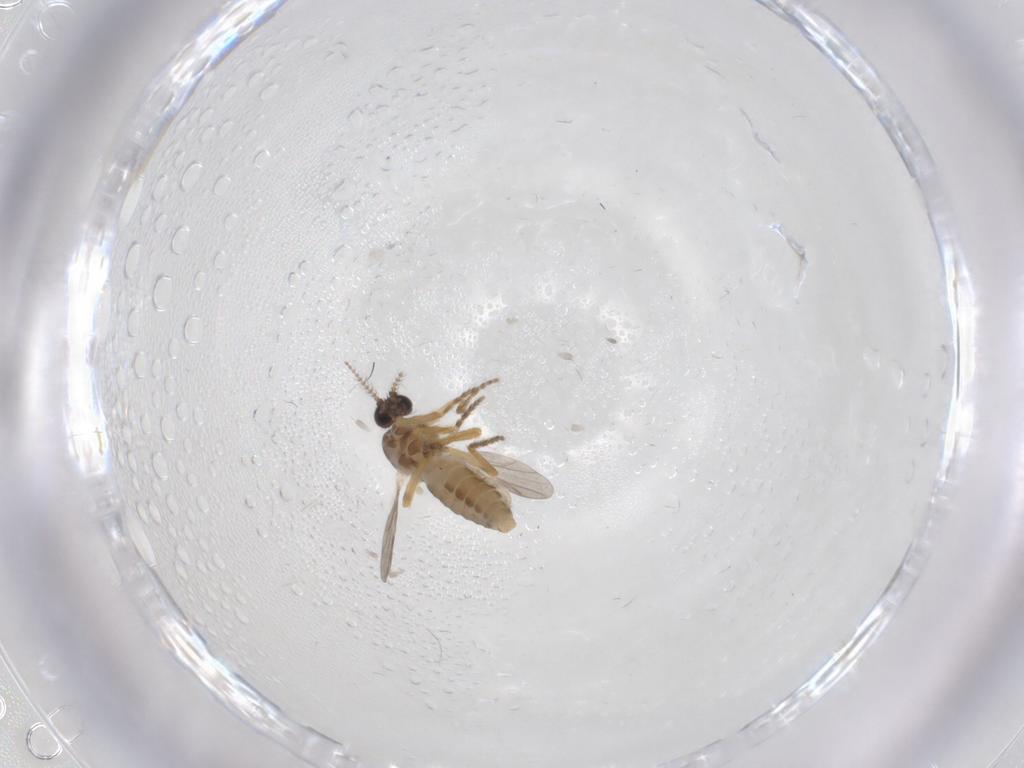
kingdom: Animalia
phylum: Arthropoda
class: Insecta
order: Diptera
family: Ceratopogonidae
